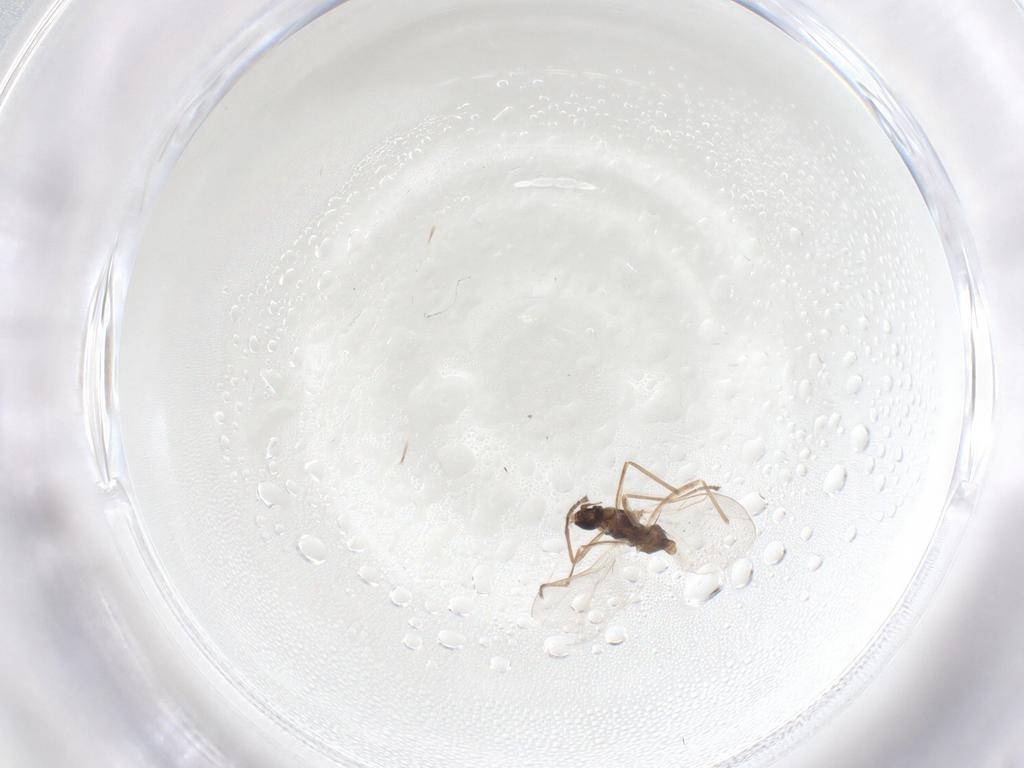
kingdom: Animalia
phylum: Arthropoda
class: Insecta
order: Diptera
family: Cecidomyiidae
